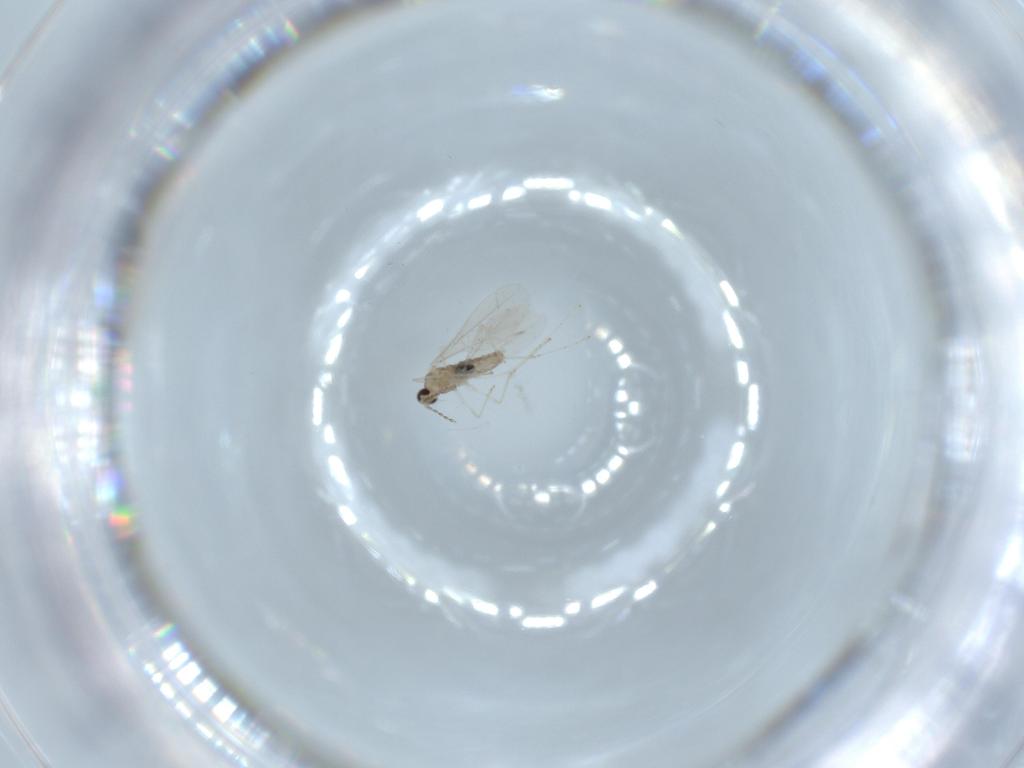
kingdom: Animalia
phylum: Arthropoda
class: Insecta
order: Diptera
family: Cecidomyiidae
